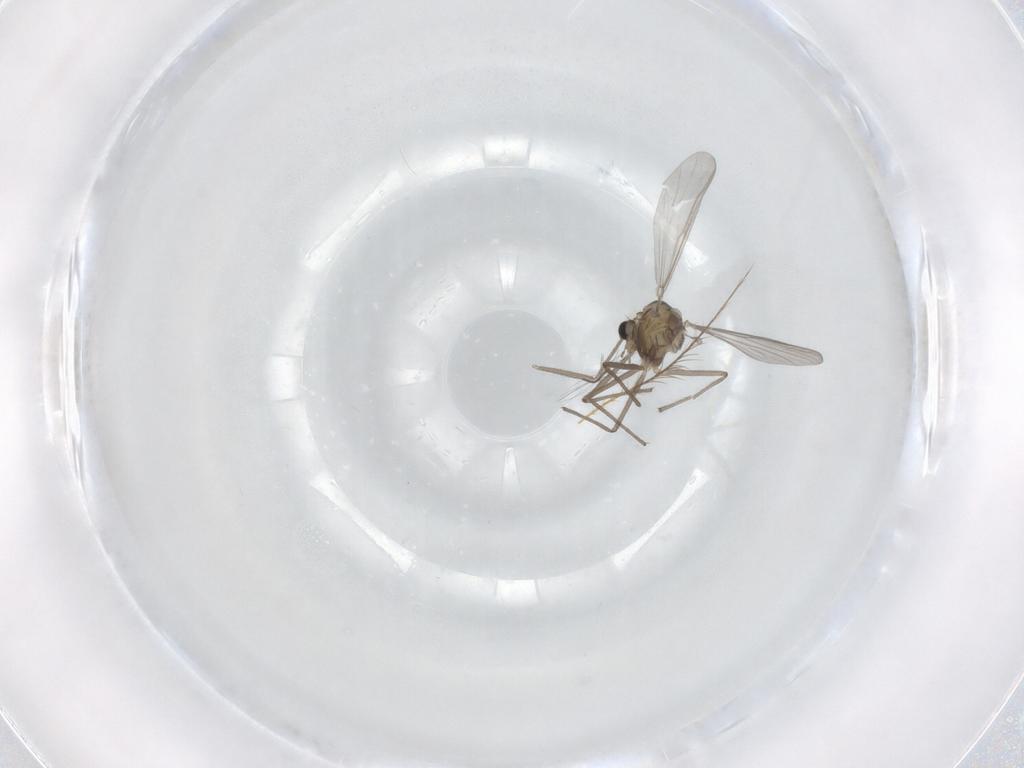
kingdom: Animalia
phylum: Arthropoda
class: Insecta
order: Diptera
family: Chironomidae
